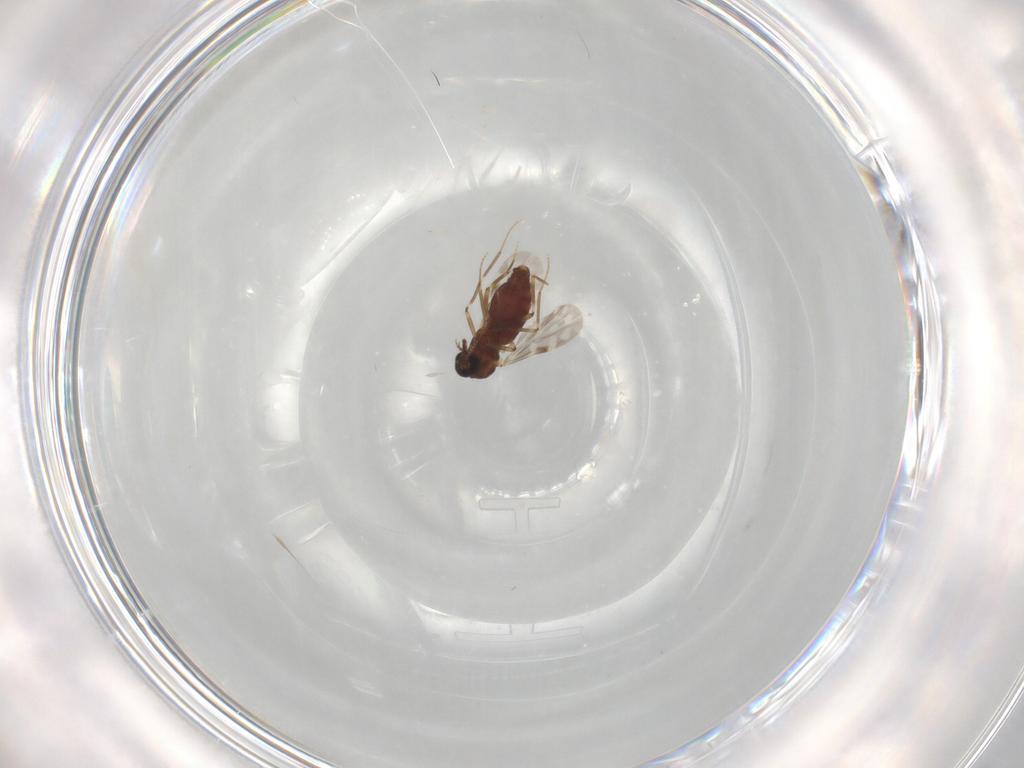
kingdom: Animalia
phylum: Arthropoda
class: Insecta
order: Diptera
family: Ceratopogonidae
